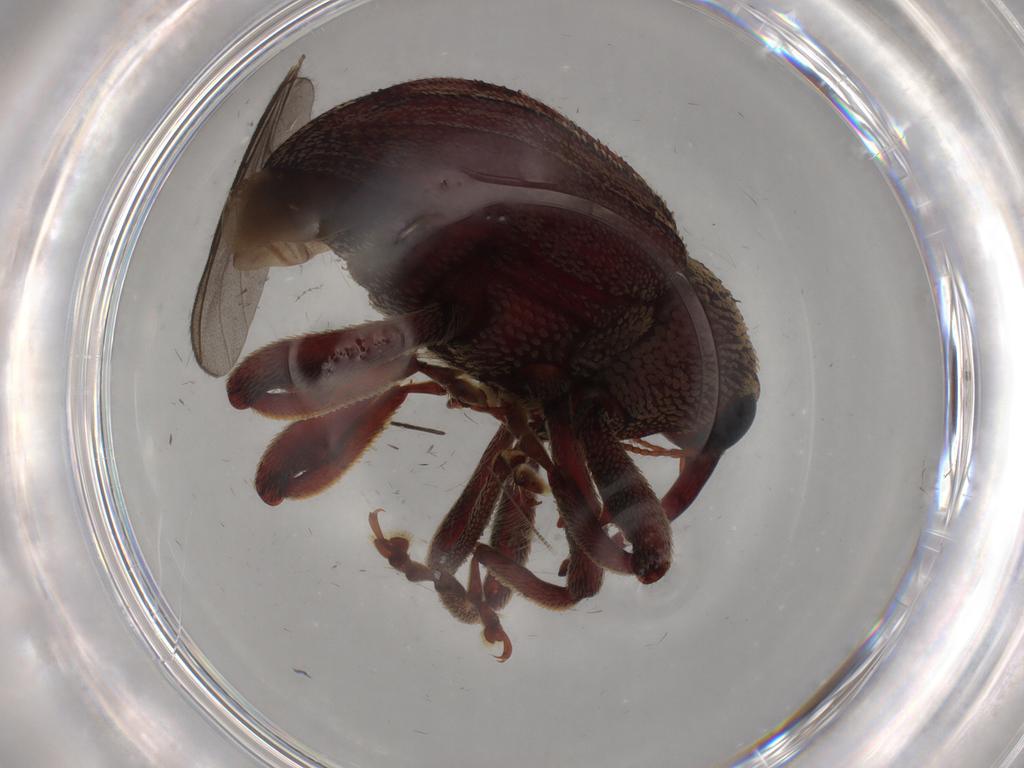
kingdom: Animalia
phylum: Arthropoda
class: Insecta
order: Coleoptera
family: Curculionidae
